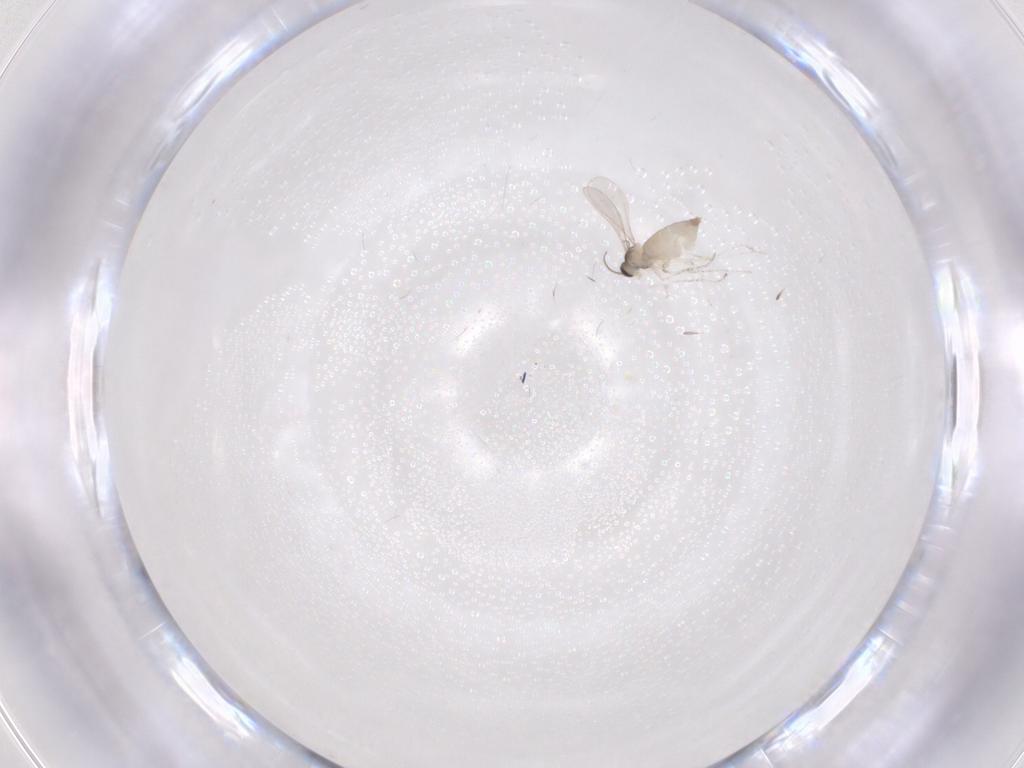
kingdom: Animalia
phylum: Arthropoda
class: Insecta
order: Diptera
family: Cecidomyiidae
